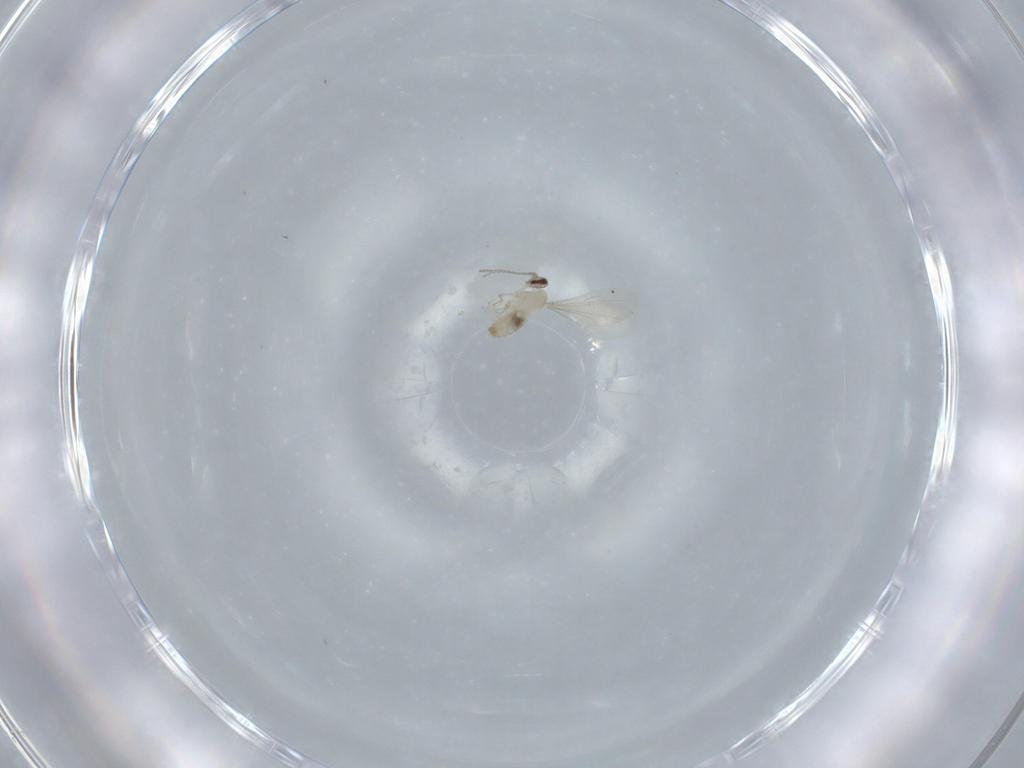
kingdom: Animalia
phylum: Arthropoda
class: Insecta
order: Diptera
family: Cecidomyiidae
